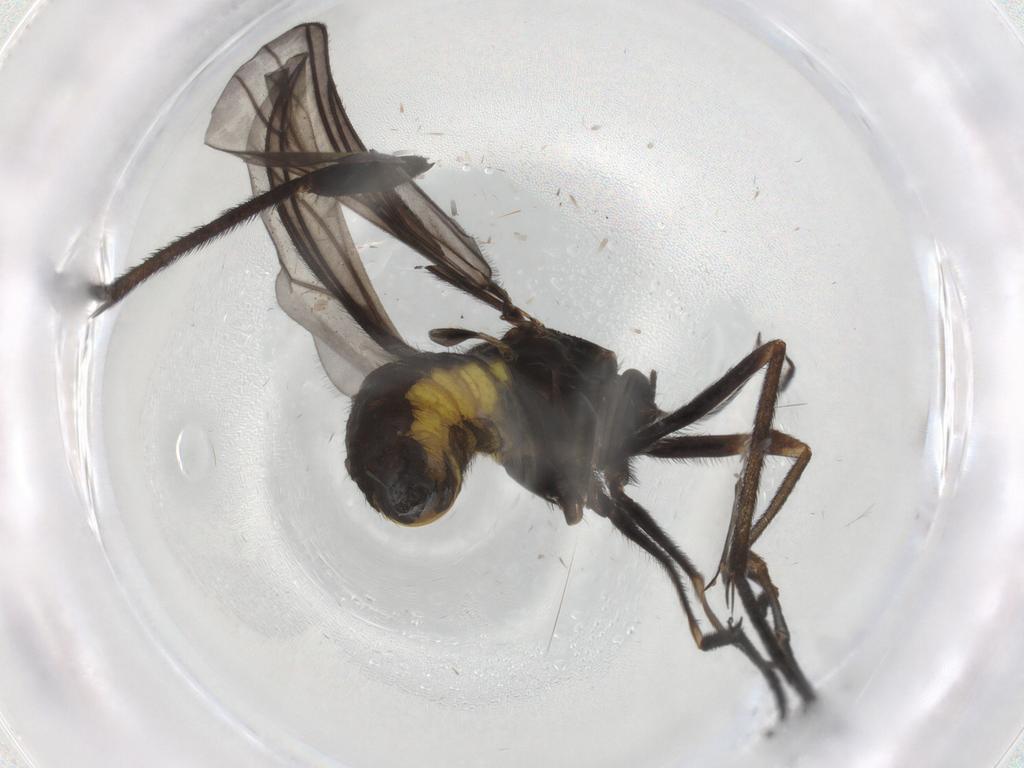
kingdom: Animalia
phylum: Arthropoda
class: Insecta
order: Diptera
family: Sciaridae
